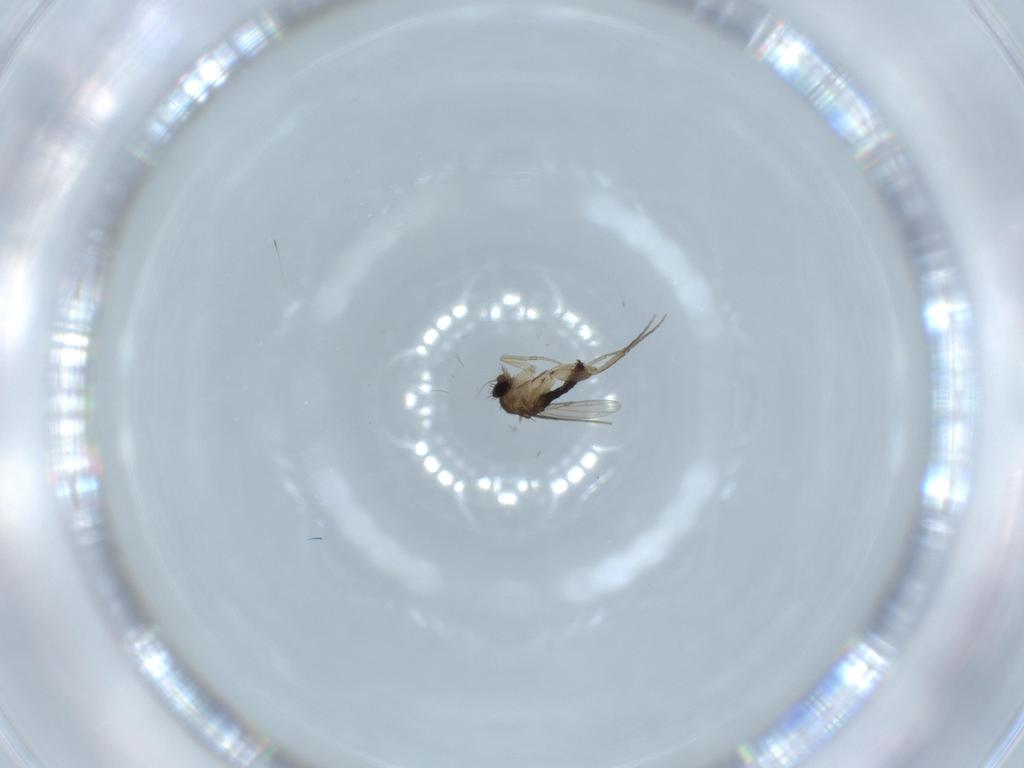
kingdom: Animalia
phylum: Arthropoda
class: Insecta
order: Diptera
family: Phoridae
